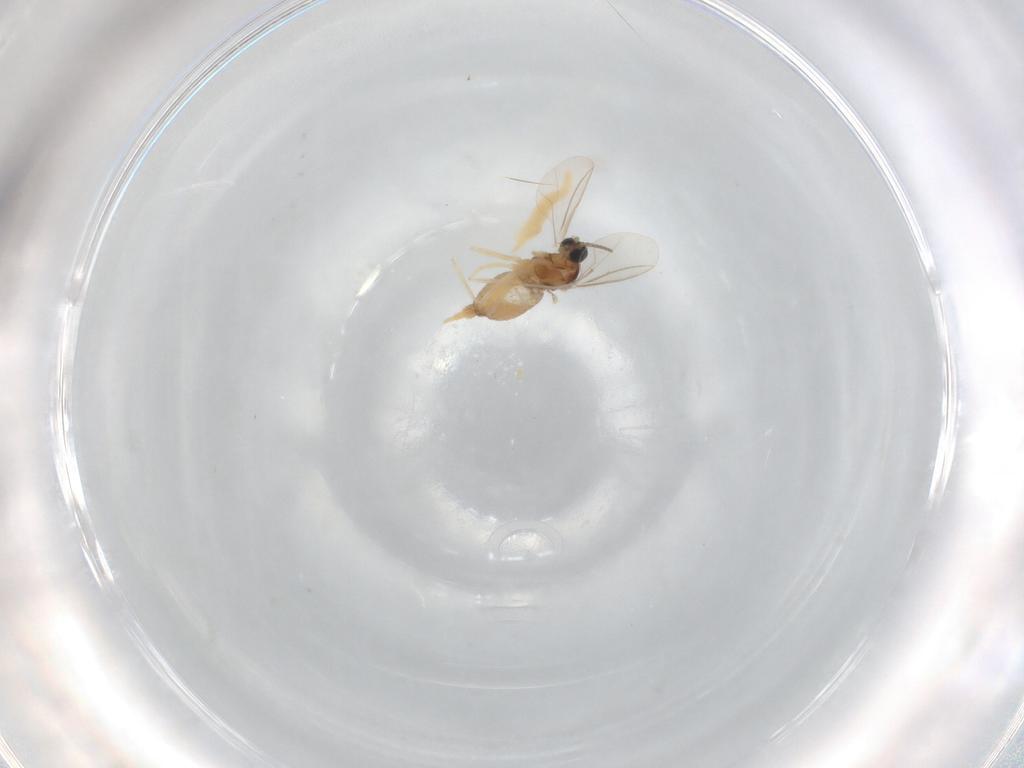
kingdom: Animalia
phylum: Arthropoda
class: Insecta
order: Diptera
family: Cecidomyiidae
